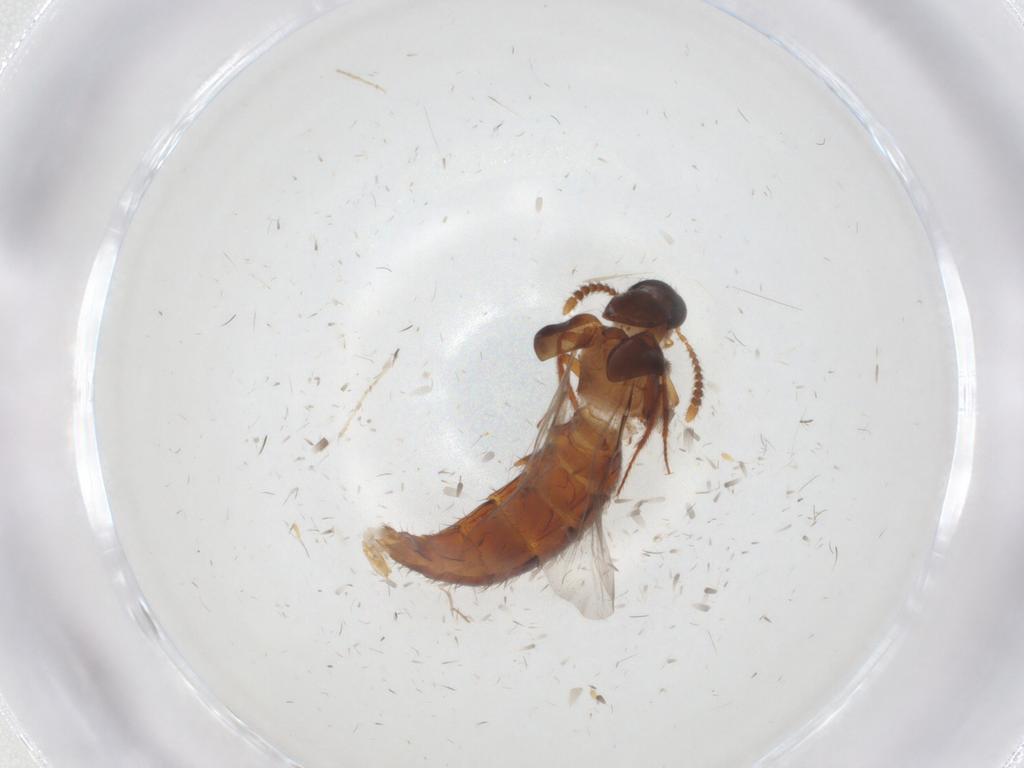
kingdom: Animalia
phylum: Arthropoda
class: Insecta
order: Coleoptera
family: Staphylinidae
